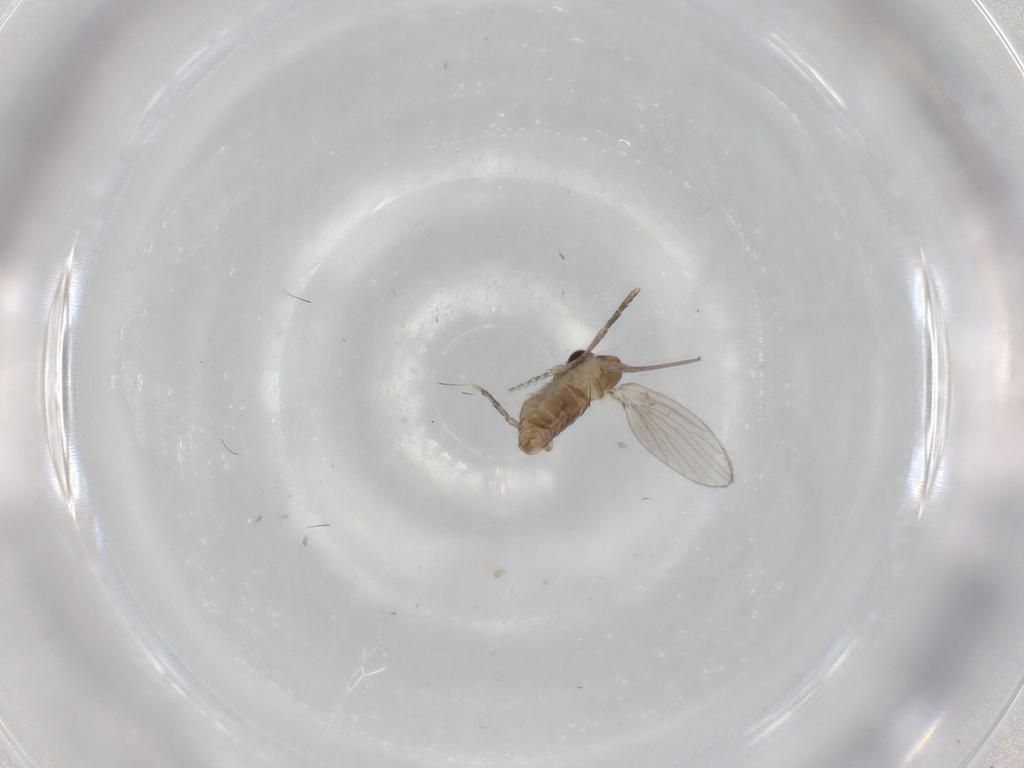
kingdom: Animalia
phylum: Arthropoda
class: Insecta
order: Diptera
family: Psychodidae
